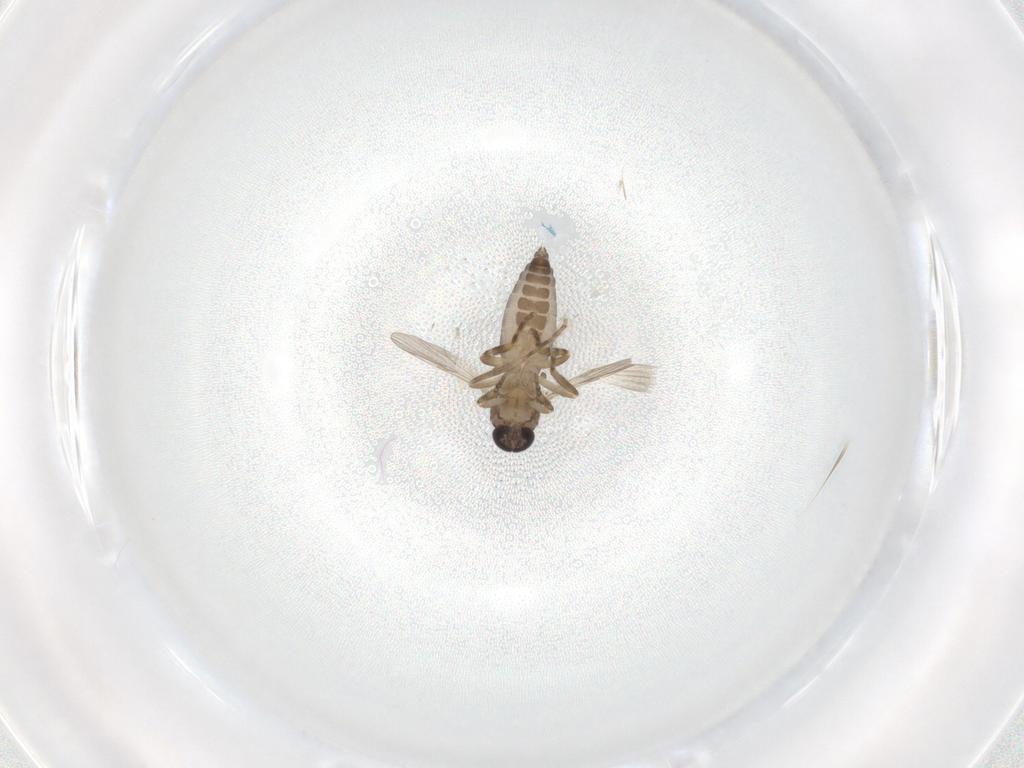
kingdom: Animalia
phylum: Arthropoda
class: Insecta
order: Diptera
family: Ceratopogonidae
